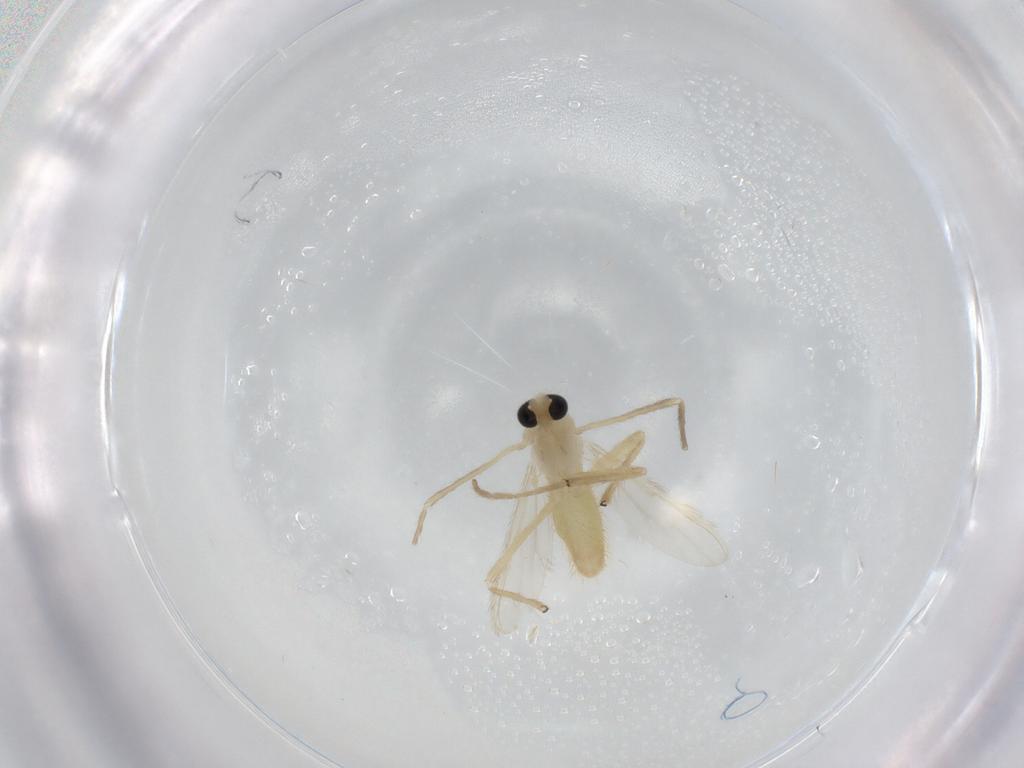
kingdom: Animalia
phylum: Arthropoda
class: Insecta
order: Diptera
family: Chironomidae
